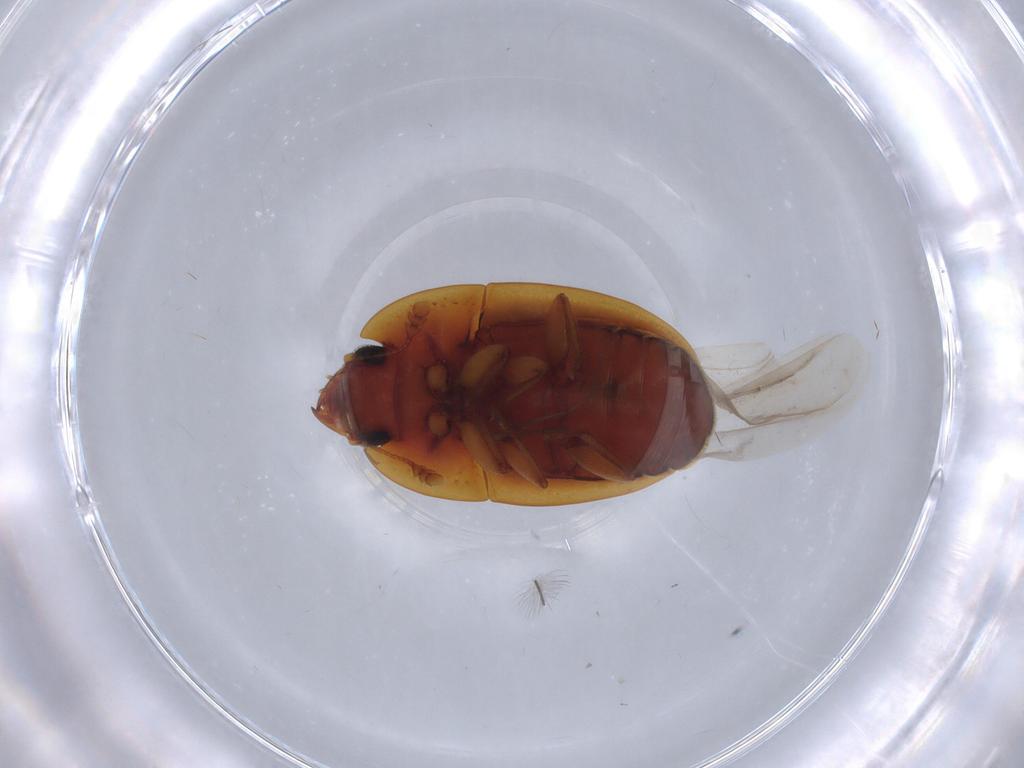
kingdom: Animalia
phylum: Arthropoda
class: Insecta
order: Coleoptera
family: Nitidulidae
